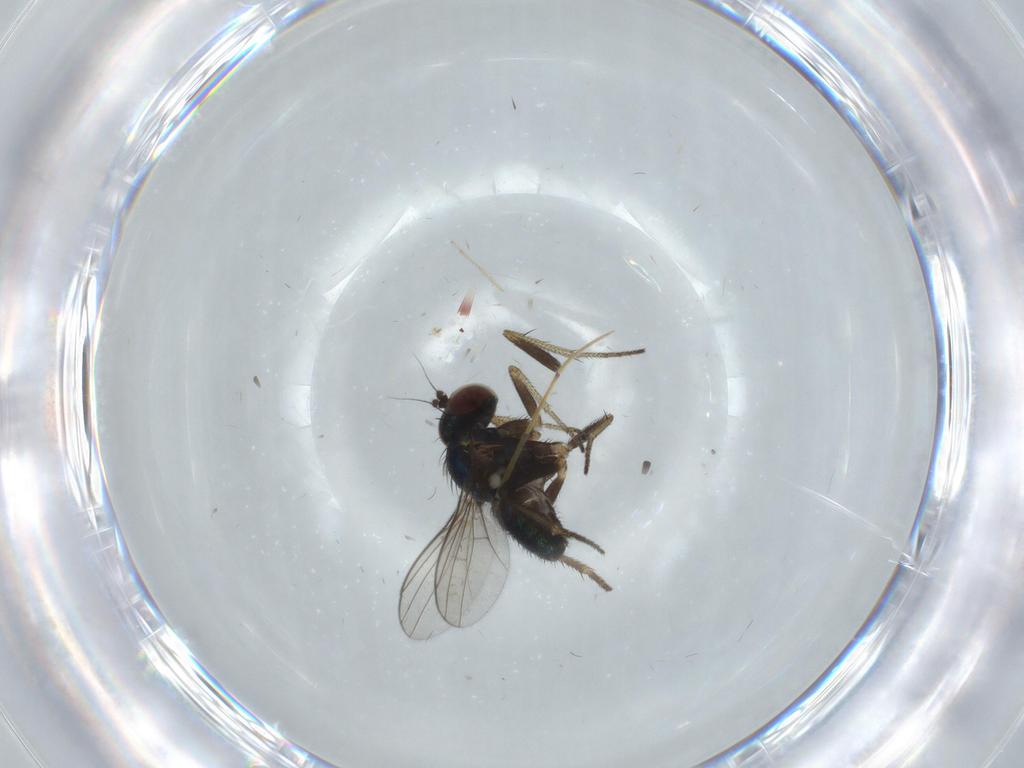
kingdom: Animalia
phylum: Arthropoda
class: Insecta
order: Diptera
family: Chironomidae
